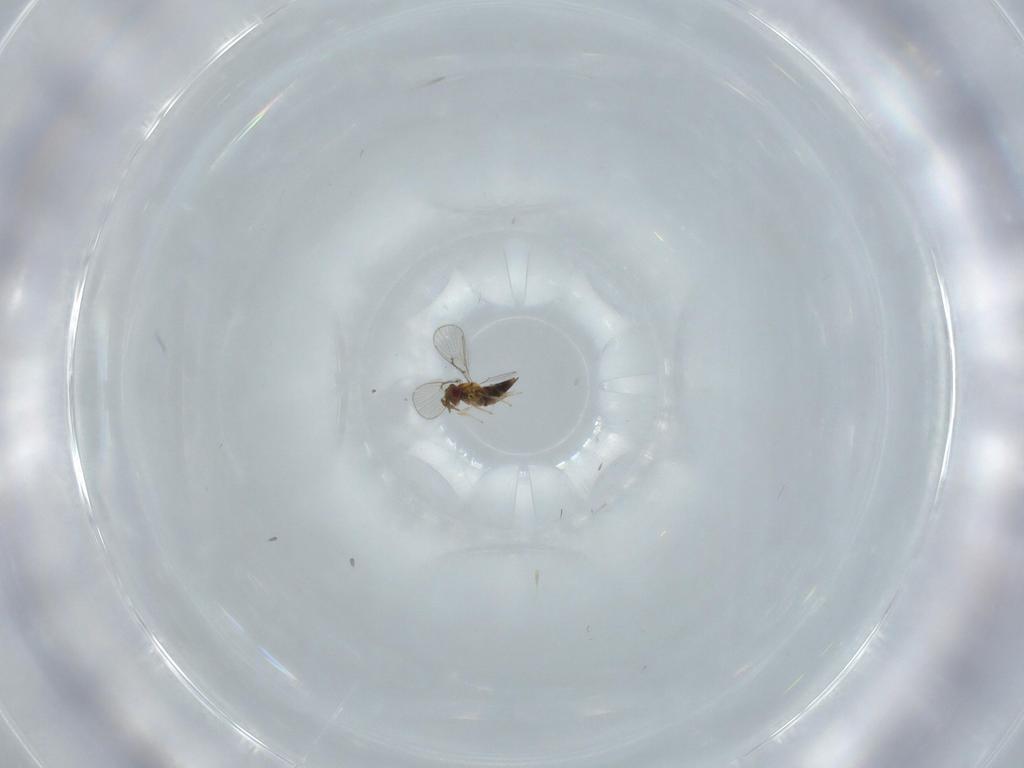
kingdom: Animalia
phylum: Arthropoda
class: Insecta
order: Hymenoptera
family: Trichogrammatidae
